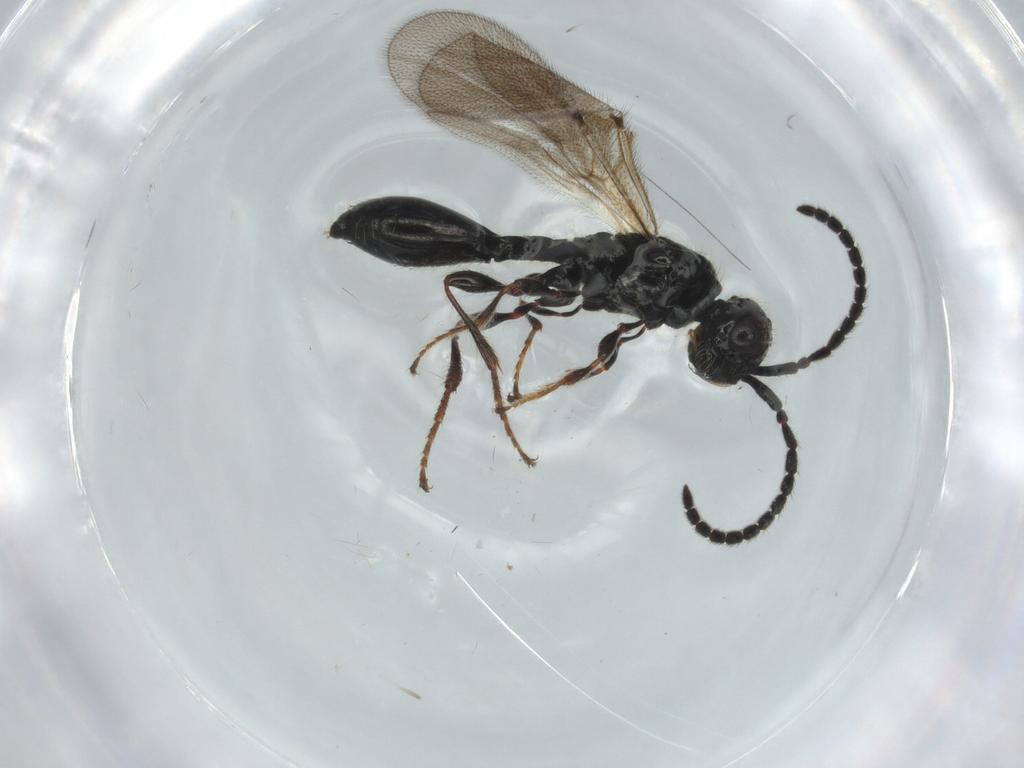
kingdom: Animalia
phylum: Arthropoda
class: Insecta
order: Hymenoptera
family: Diapriidae
